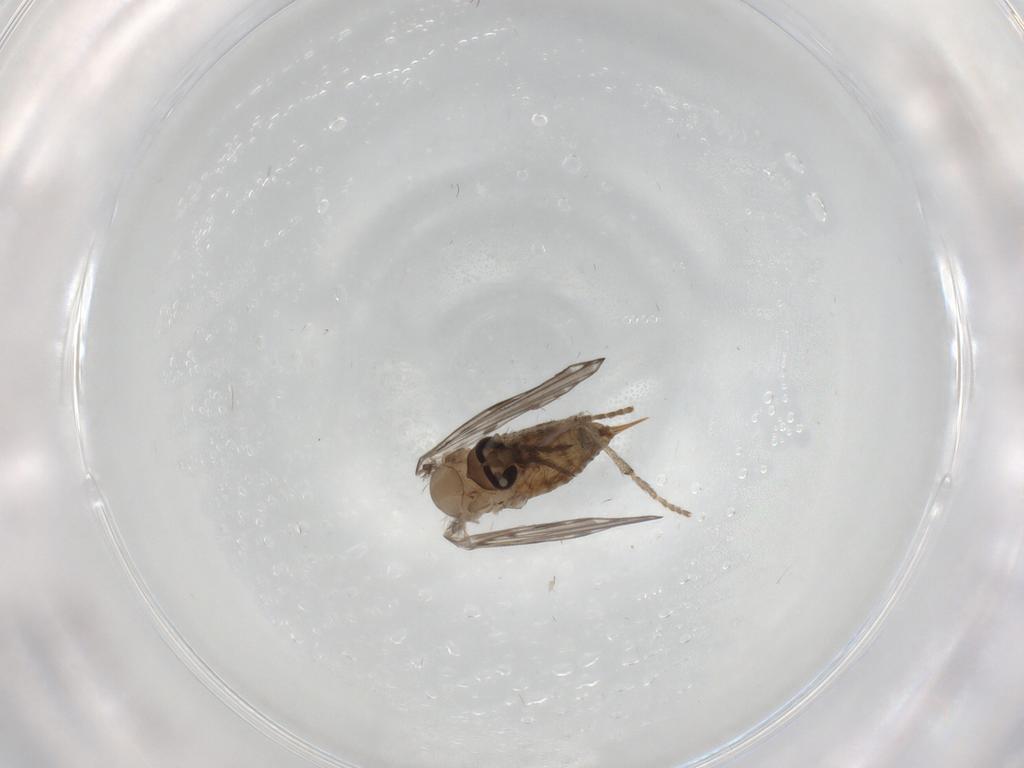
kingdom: Animalia
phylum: Arthropoda
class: Insecta
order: Diptera
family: Psychodidae
